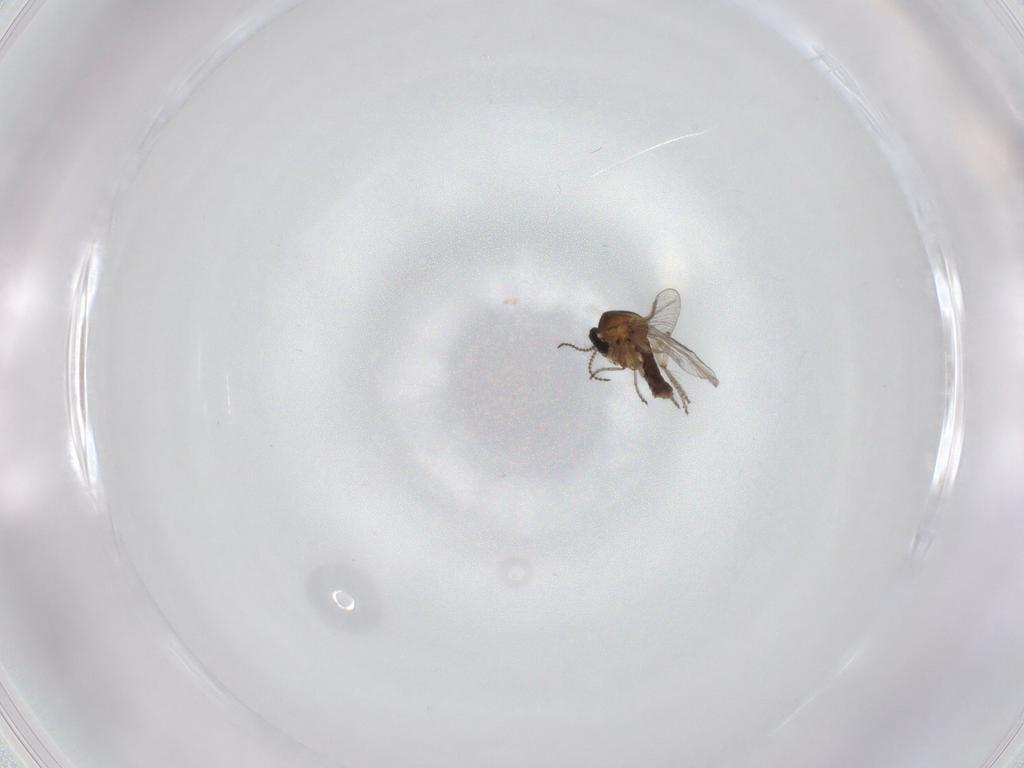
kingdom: Animalia
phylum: Arthropoda
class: Insecta
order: Diptera
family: Ceratopogonidae
